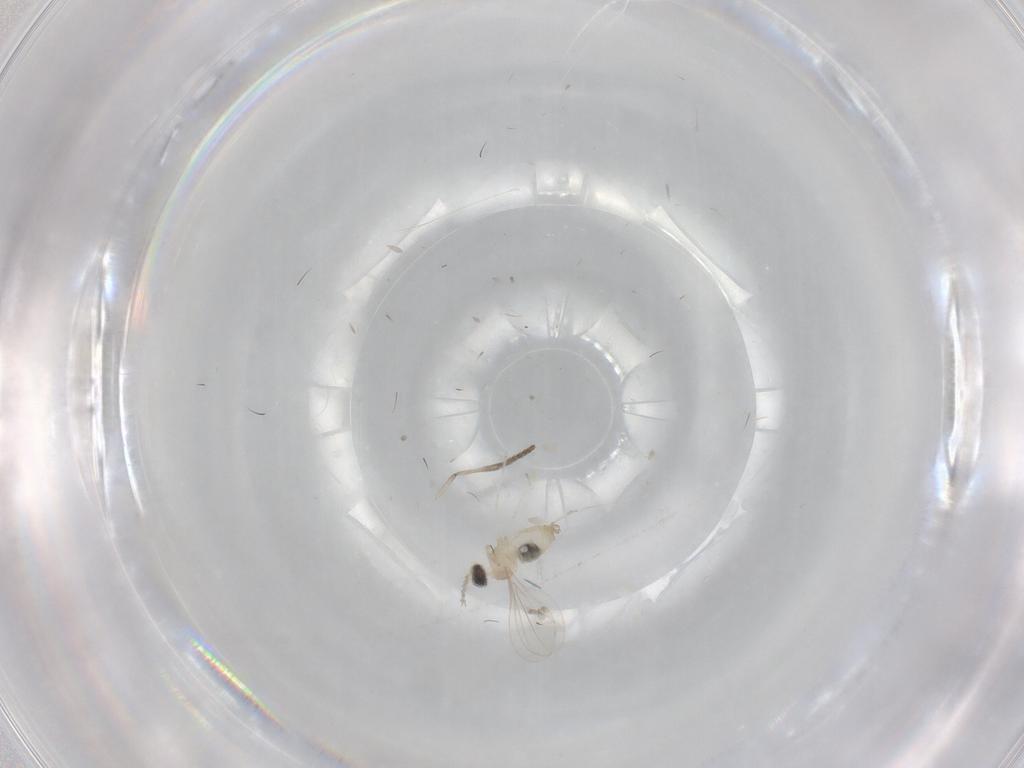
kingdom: Animalia
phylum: Arthropoda
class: Insecta
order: Diptera
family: Cecidomyiidae
